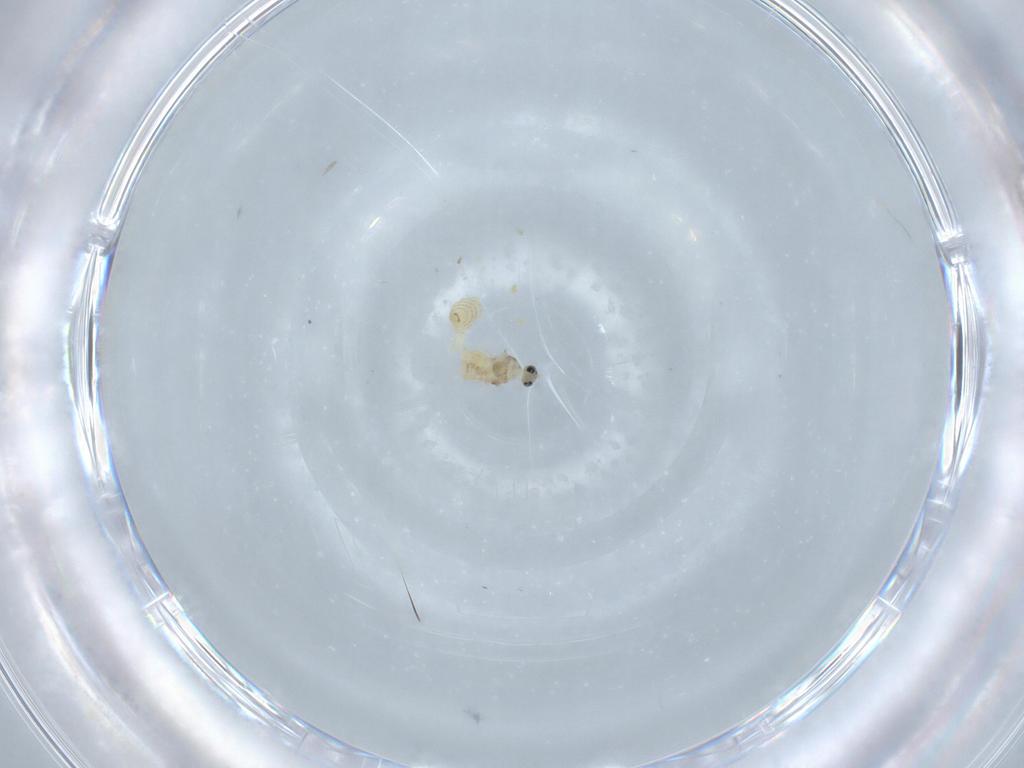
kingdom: Animalia
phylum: Arthropoda
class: Insecta
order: Diptera
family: Cecidomyiidae
